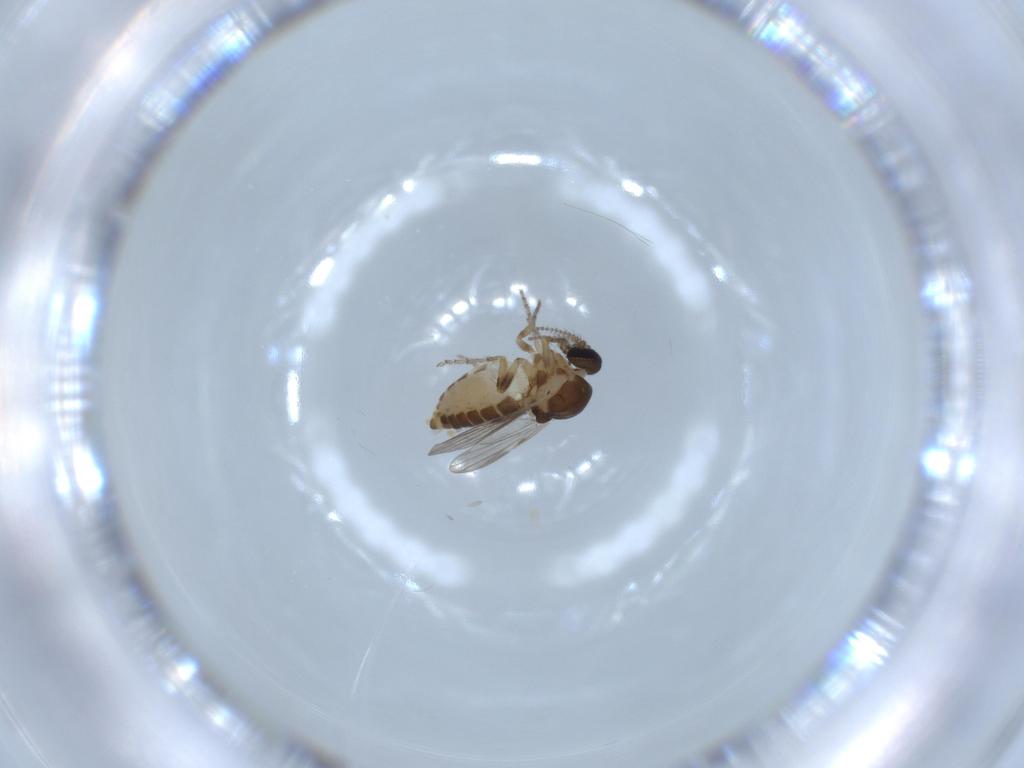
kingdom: Animalia
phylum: Arthropoda
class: Insecta
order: Diptera
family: Ceratopogonidae
